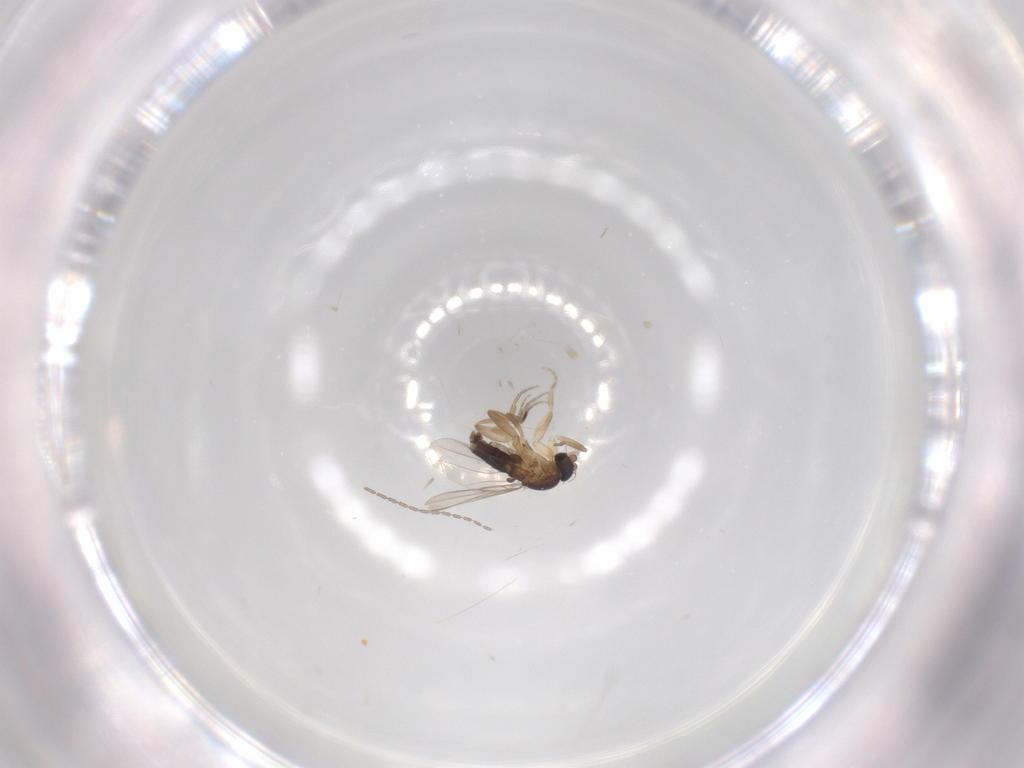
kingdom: Animalia
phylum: Arthropoda
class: Insecta
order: Diptera
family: Phoridae
